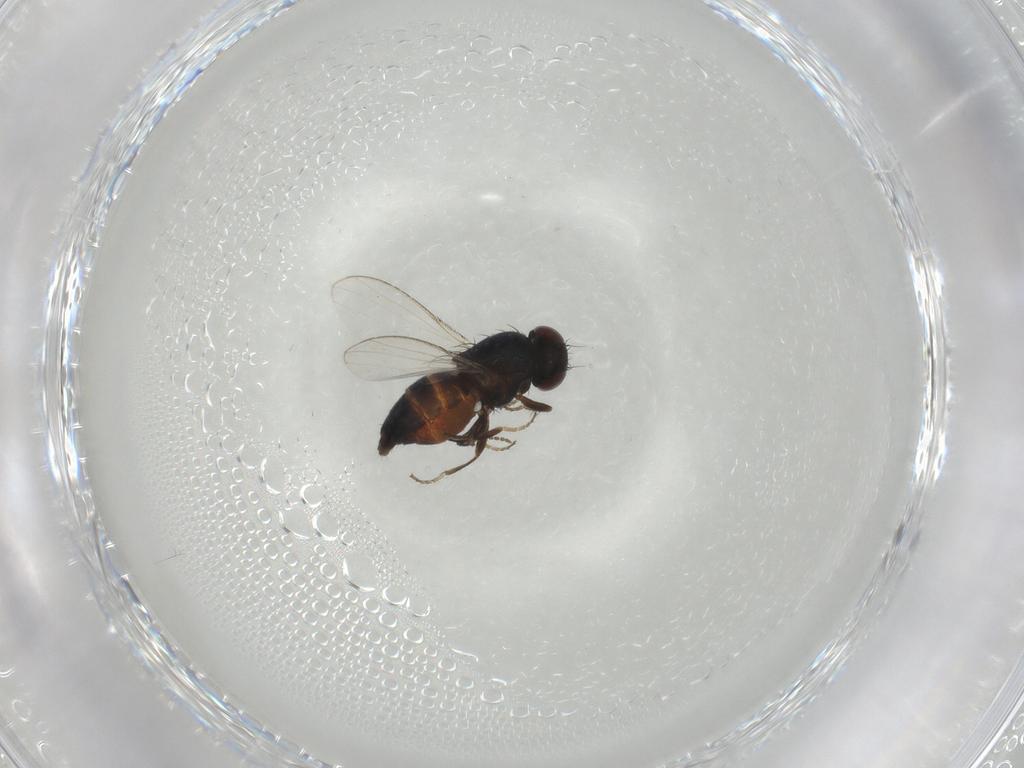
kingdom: Animalia
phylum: Arthropoda
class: Insecta
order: Diptera
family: Carnidae
